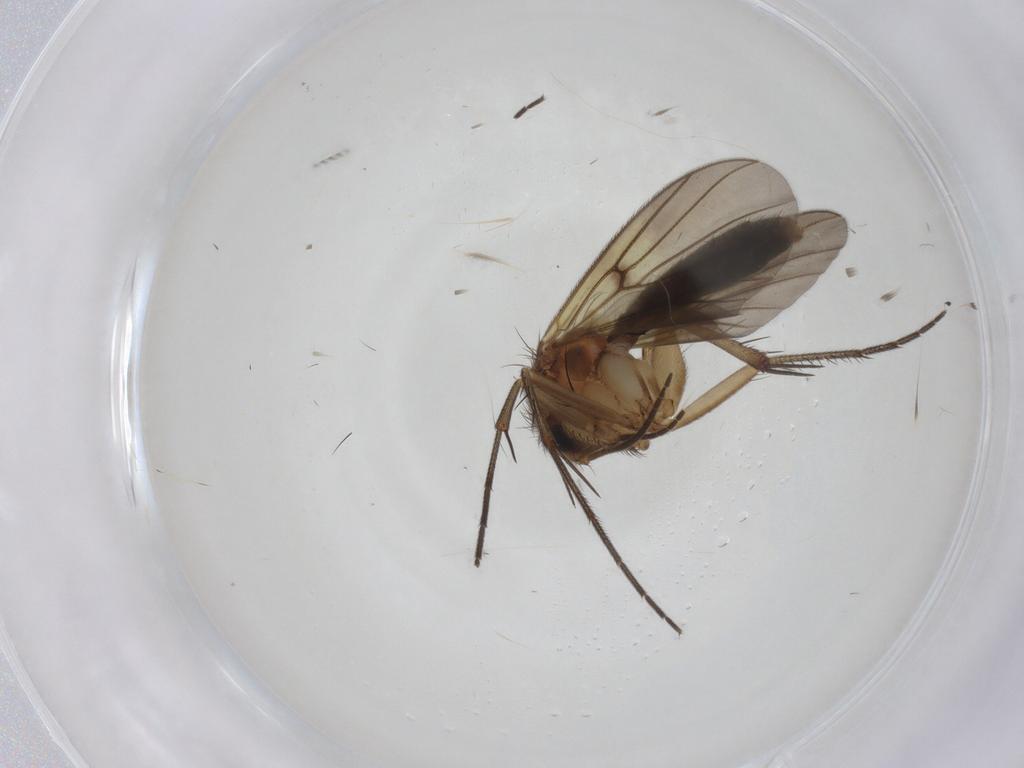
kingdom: Animalia
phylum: Arthropoda
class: Insecta
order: Diptera
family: Mycetophilidae
